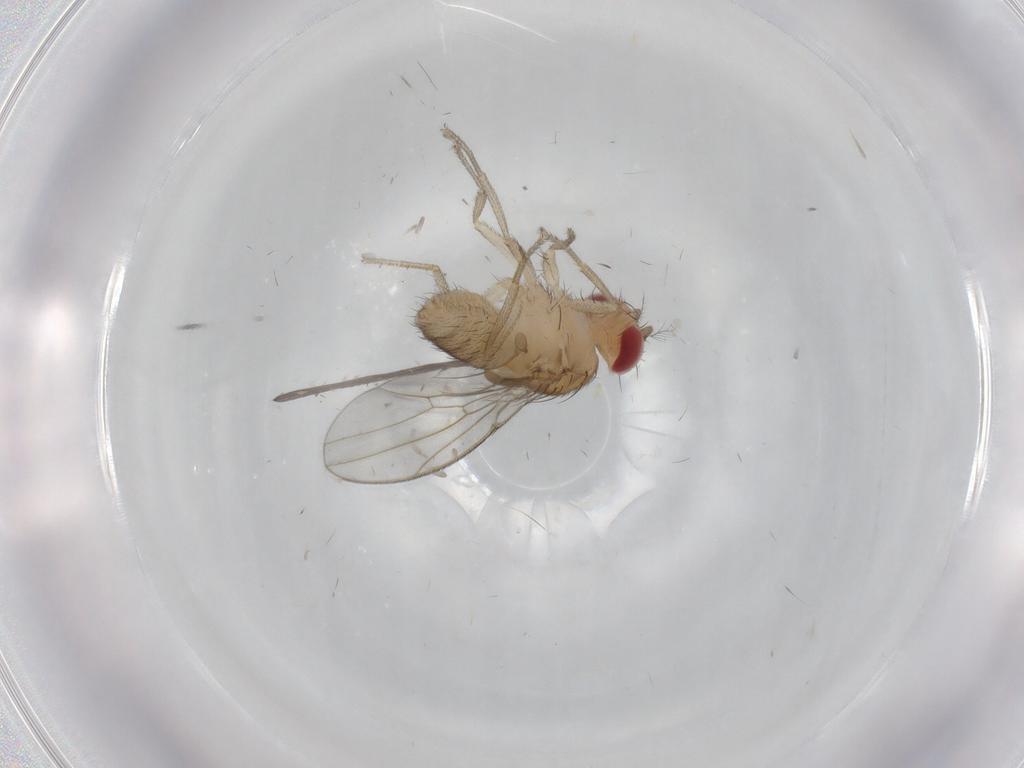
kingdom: Animalia
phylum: Arthropoda
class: Insecta
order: Diptera
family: Drosophilidae
